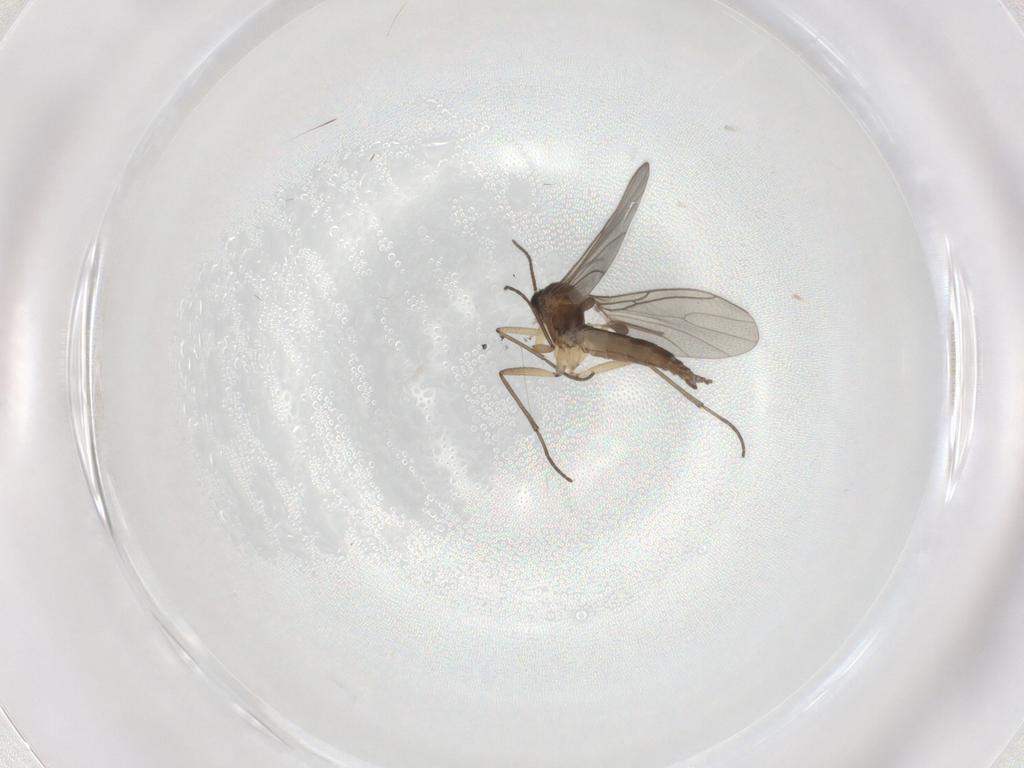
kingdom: Animalia
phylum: Arthropoda
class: Insecta
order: Diptera
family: Sciaridae
